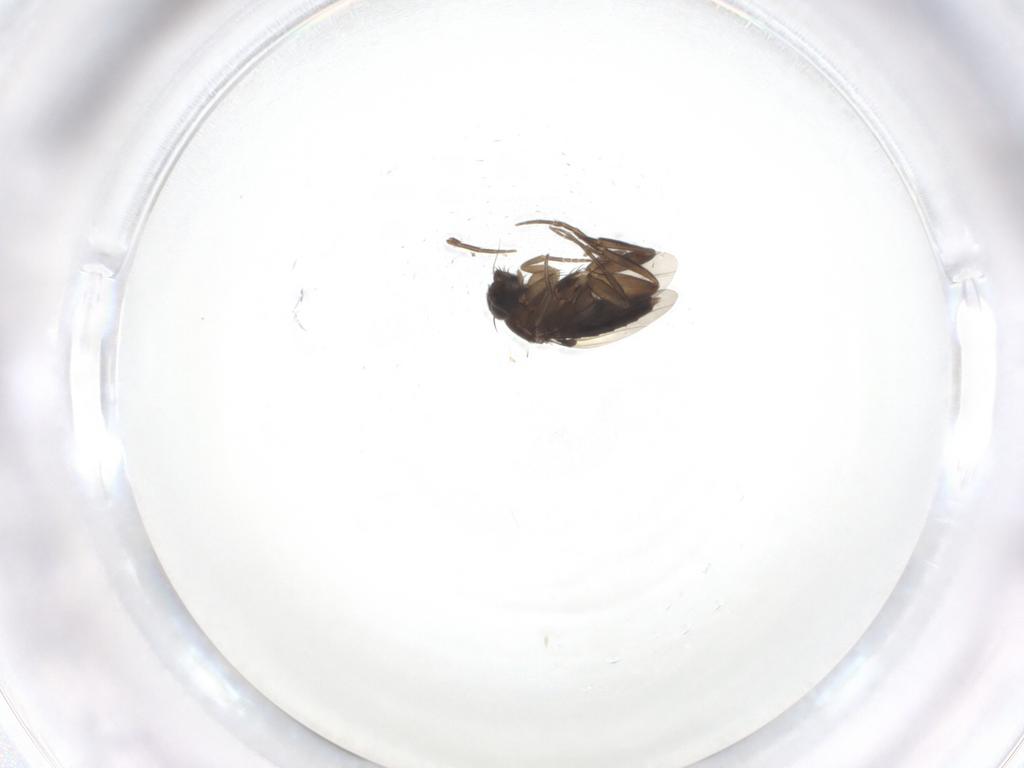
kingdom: Animalia
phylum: Arthropoda
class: Insecta
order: Diptera
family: Phoridae
